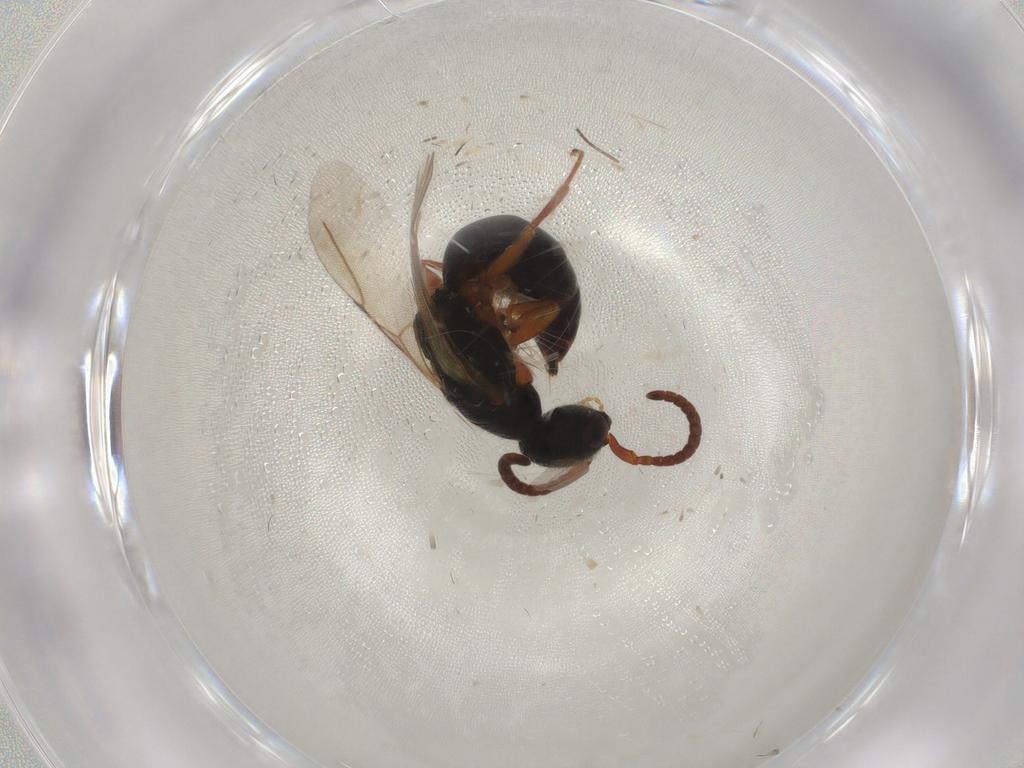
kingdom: Animalia
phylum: Arthropoda
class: Insecta
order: Hymenoptera
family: Bethylidae
